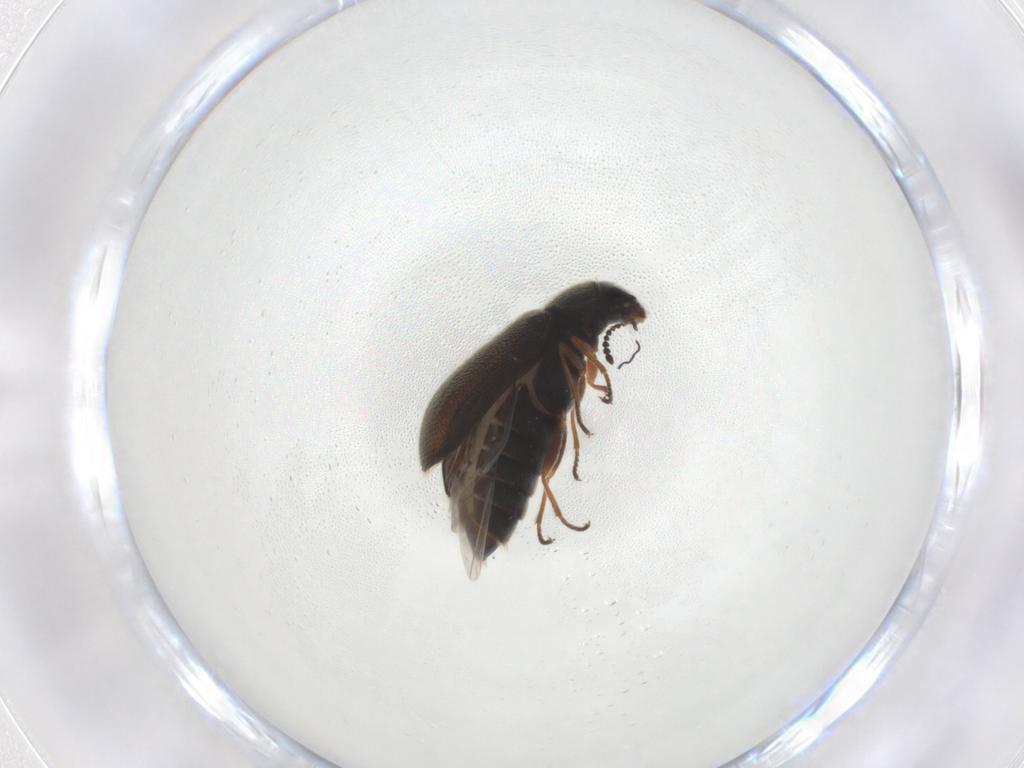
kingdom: Animalia
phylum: Arthropoda
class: Insecta
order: Coleoptera
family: Melyridae
